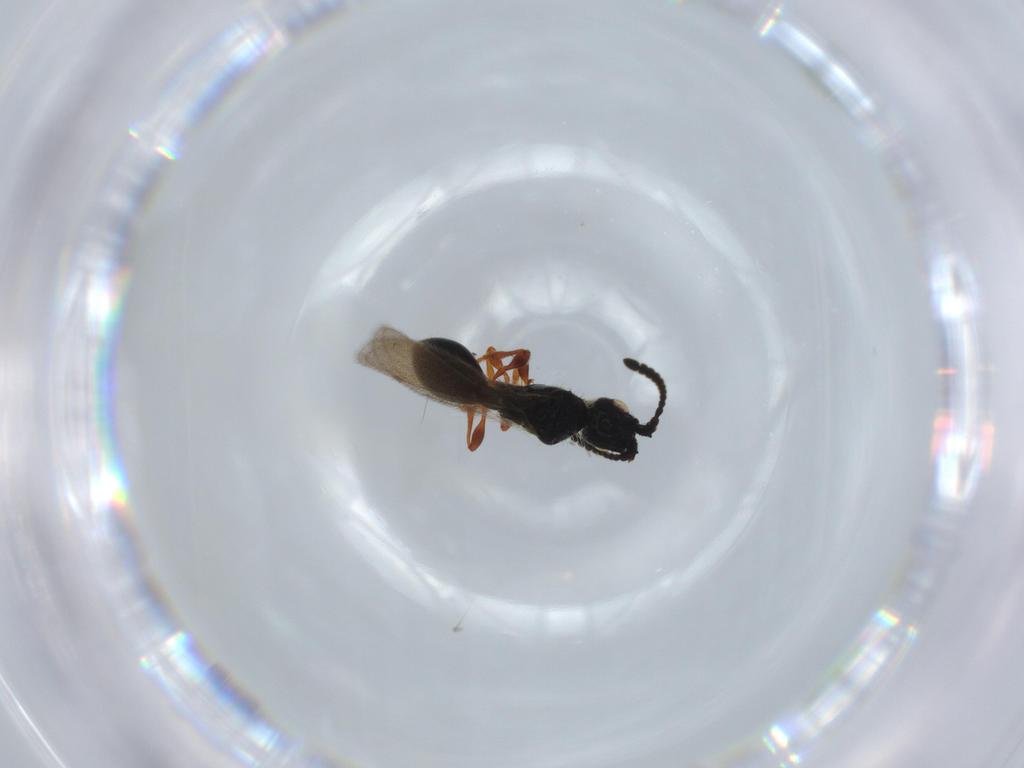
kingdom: Animalia
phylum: Arthropoda
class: Insecta
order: Hymenoptera
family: Diapriidae
